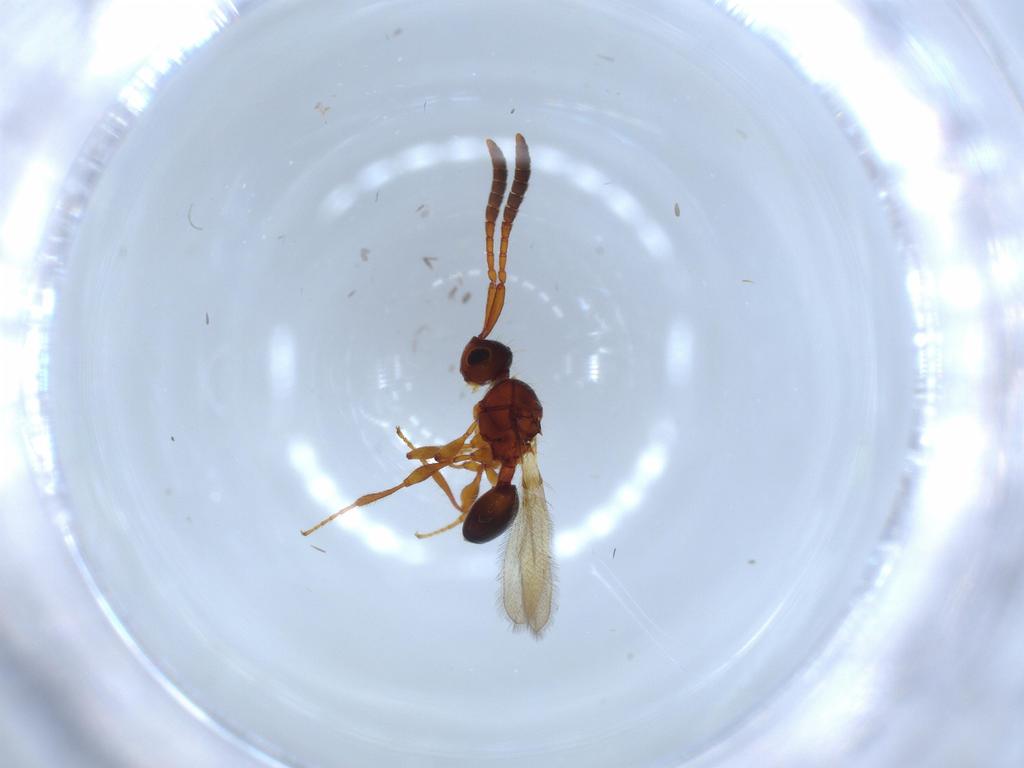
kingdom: Animalia
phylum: Arthropoda
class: Insecta
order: Hymenoptera
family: Diapriidae
